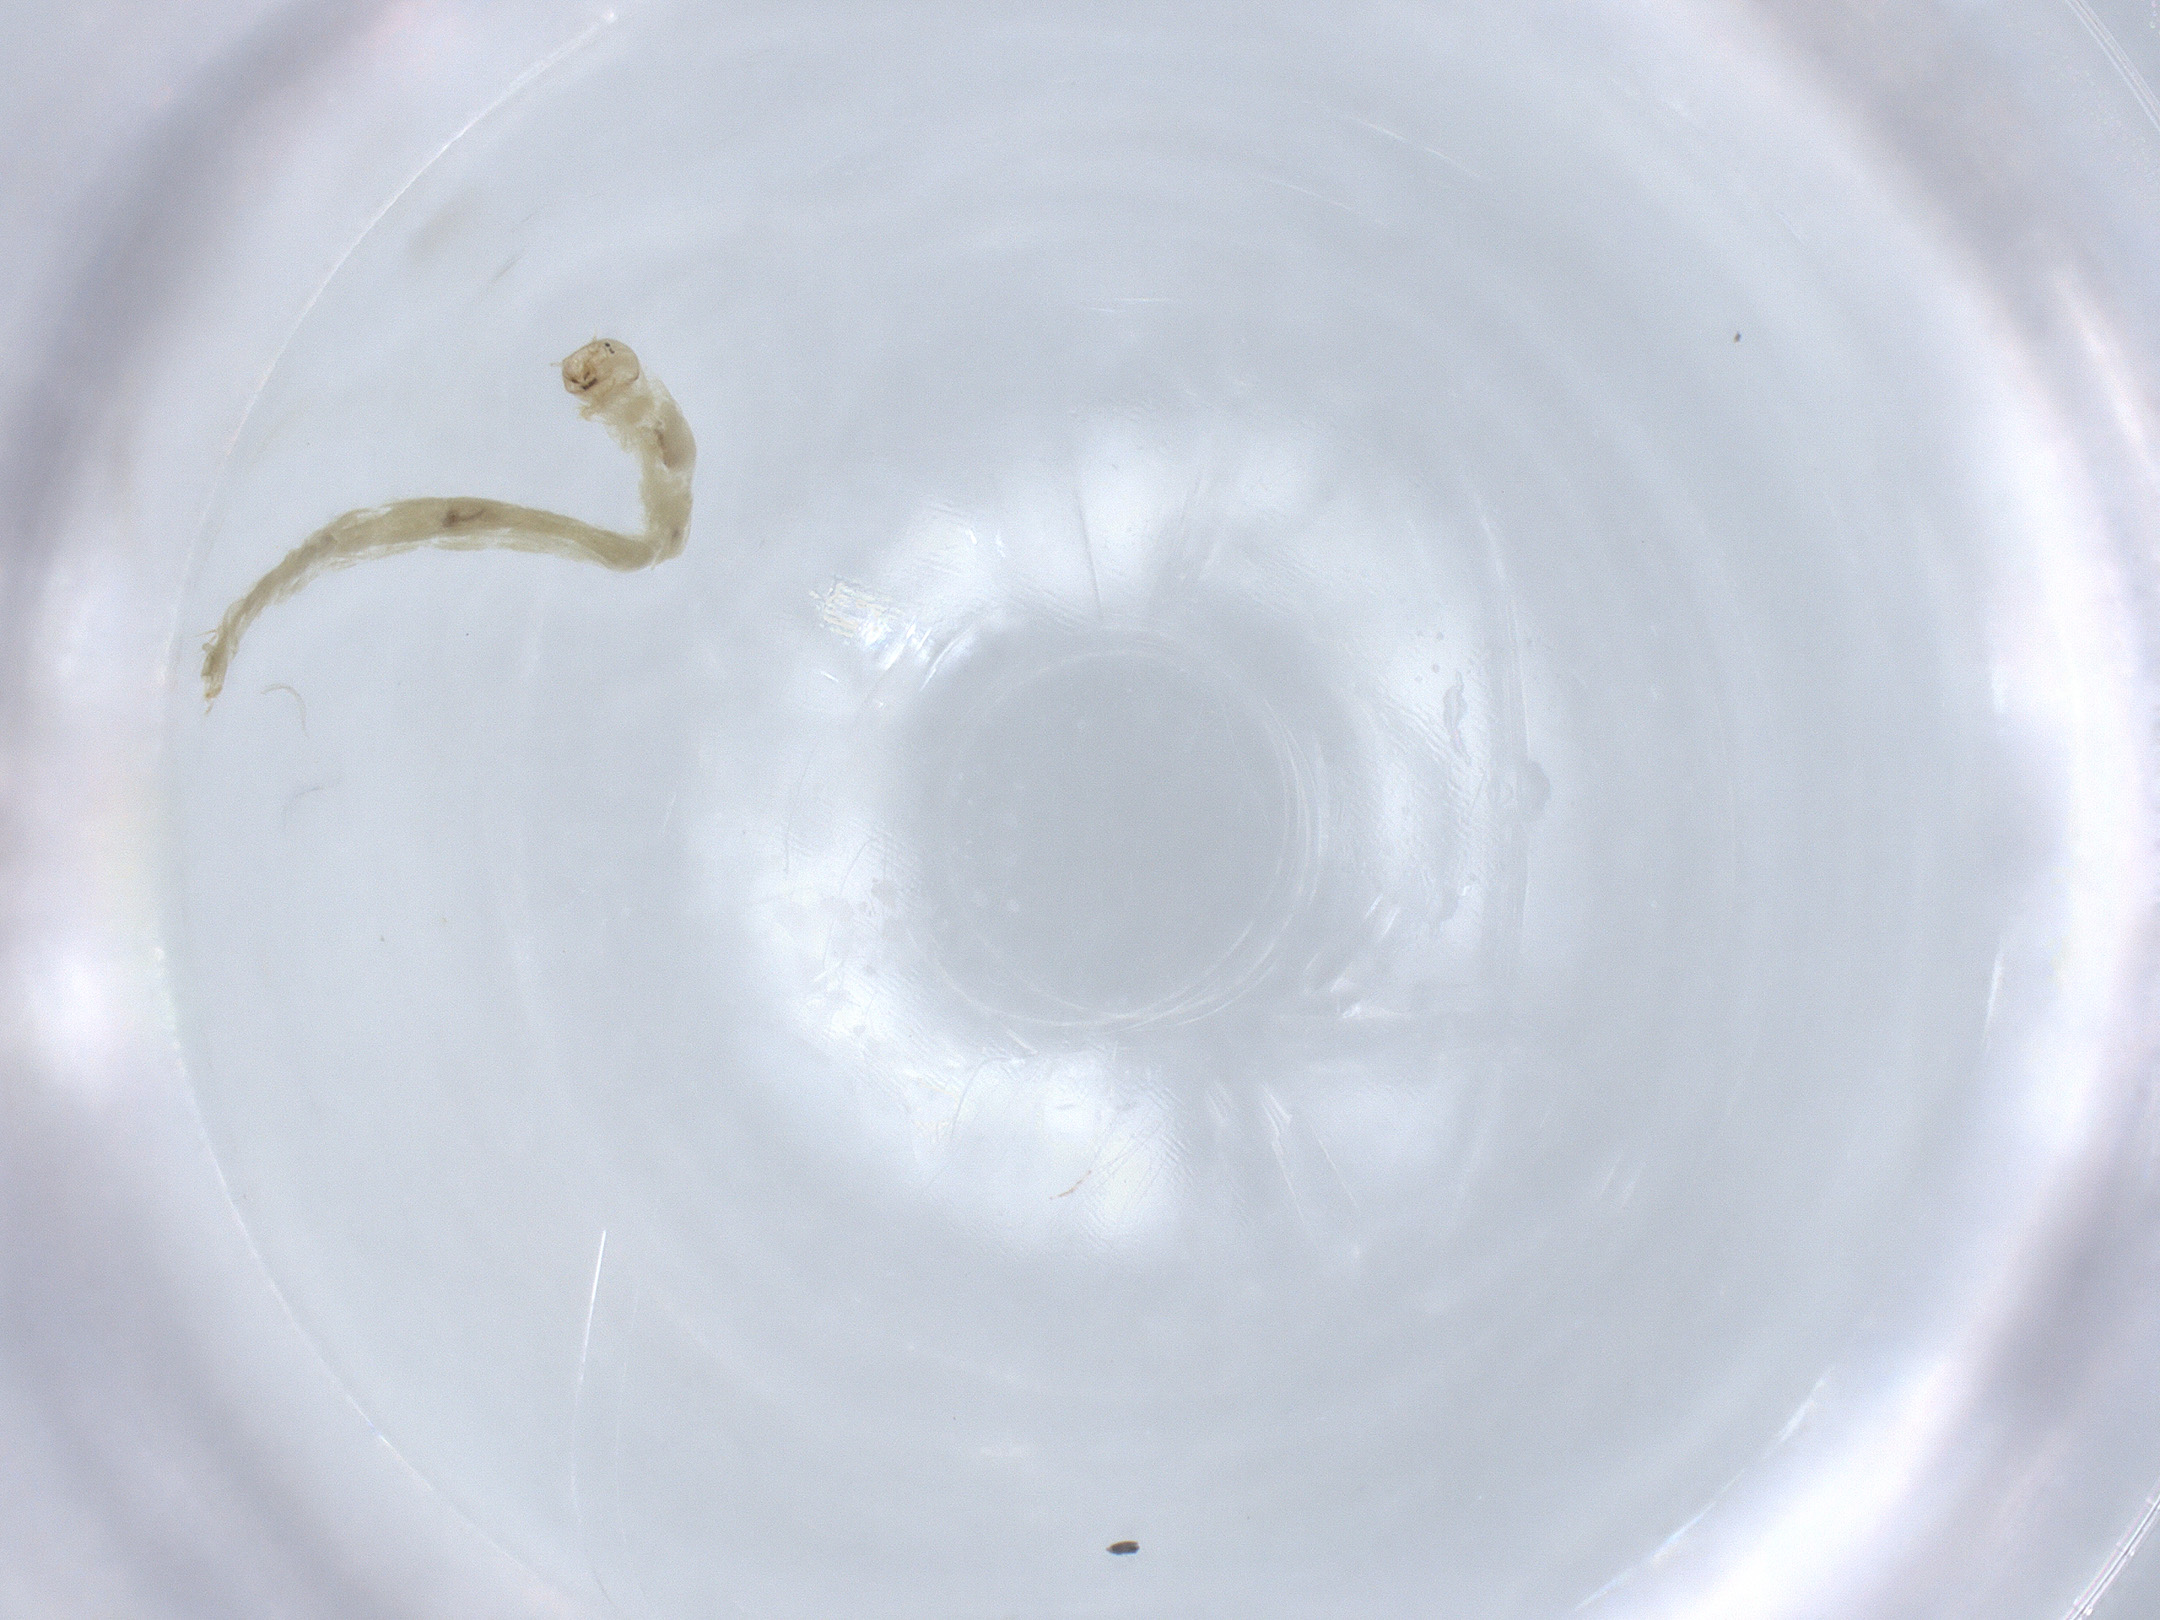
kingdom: Animalia
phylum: Arthropoda
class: Insecta
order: Diptera
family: Chironomidae
